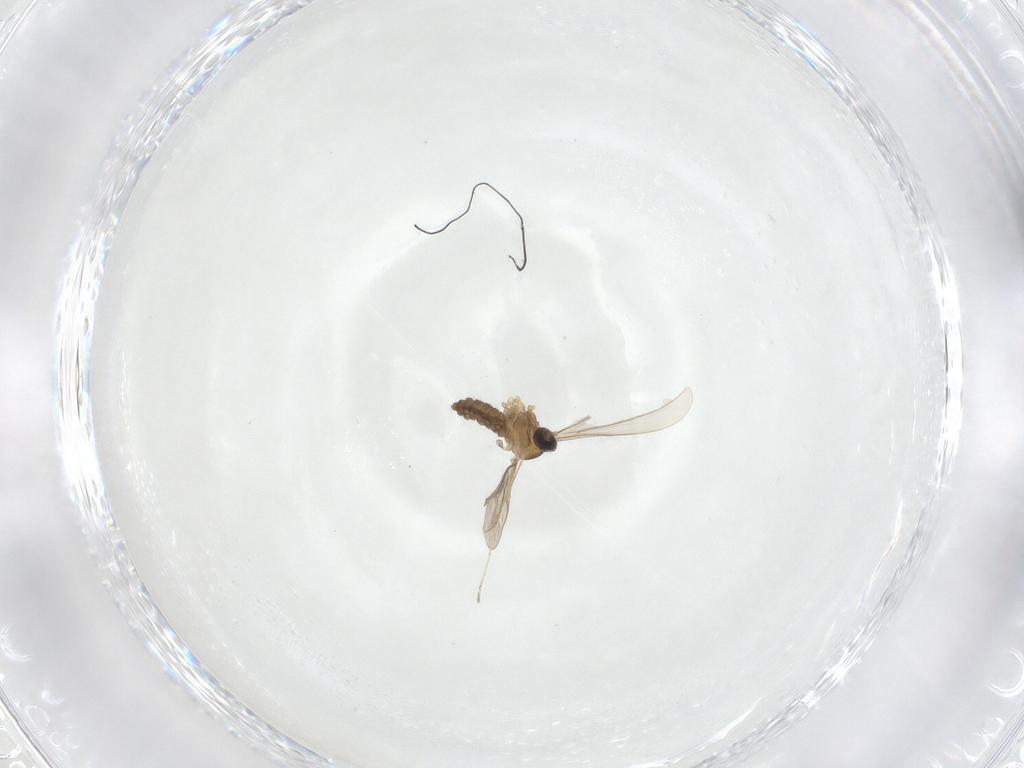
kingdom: Animalia
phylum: Arthropoda
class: Insecta
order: Diptera
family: Cecidomyiidae
